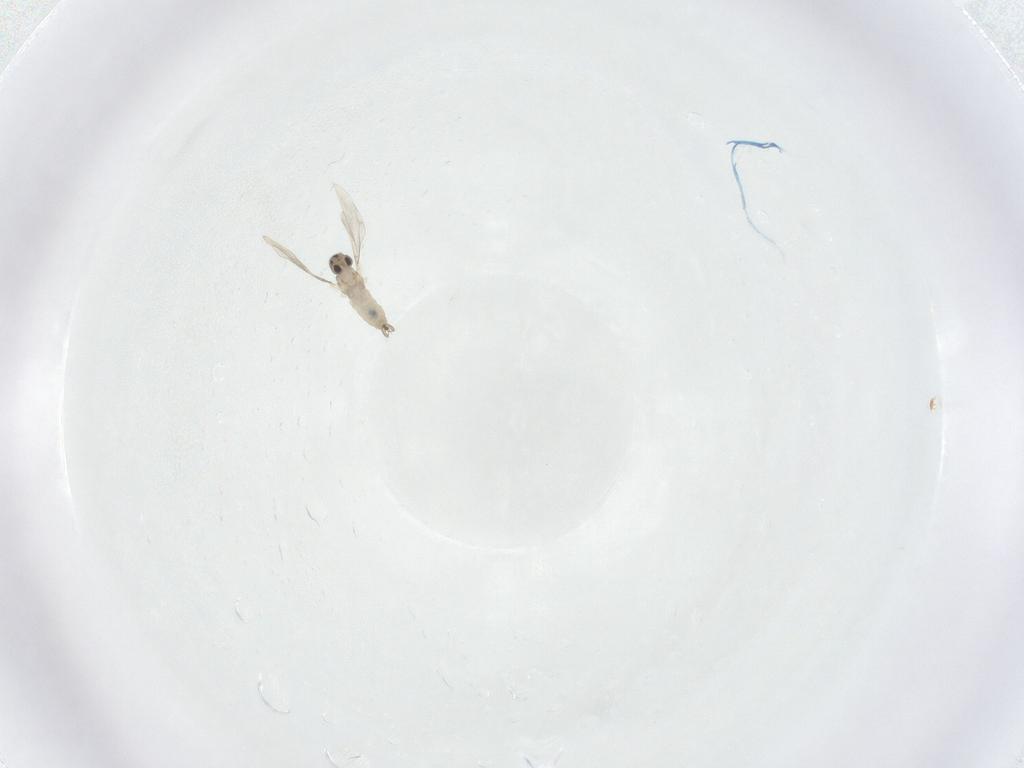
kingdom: Animalia
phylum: Arthropoda
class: Insecta
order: Diptera
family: Cecidomyiidae
